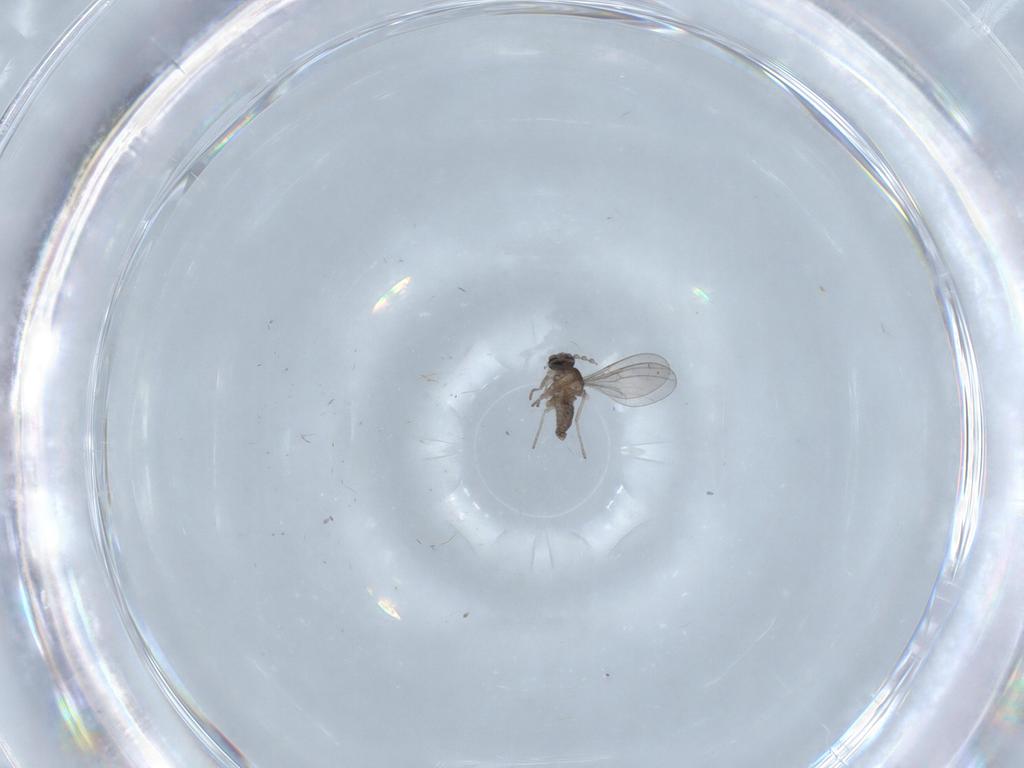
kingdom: Animalia
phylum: Arthropoda
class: Insecta
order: Diptera
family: Cecidomyiidae
